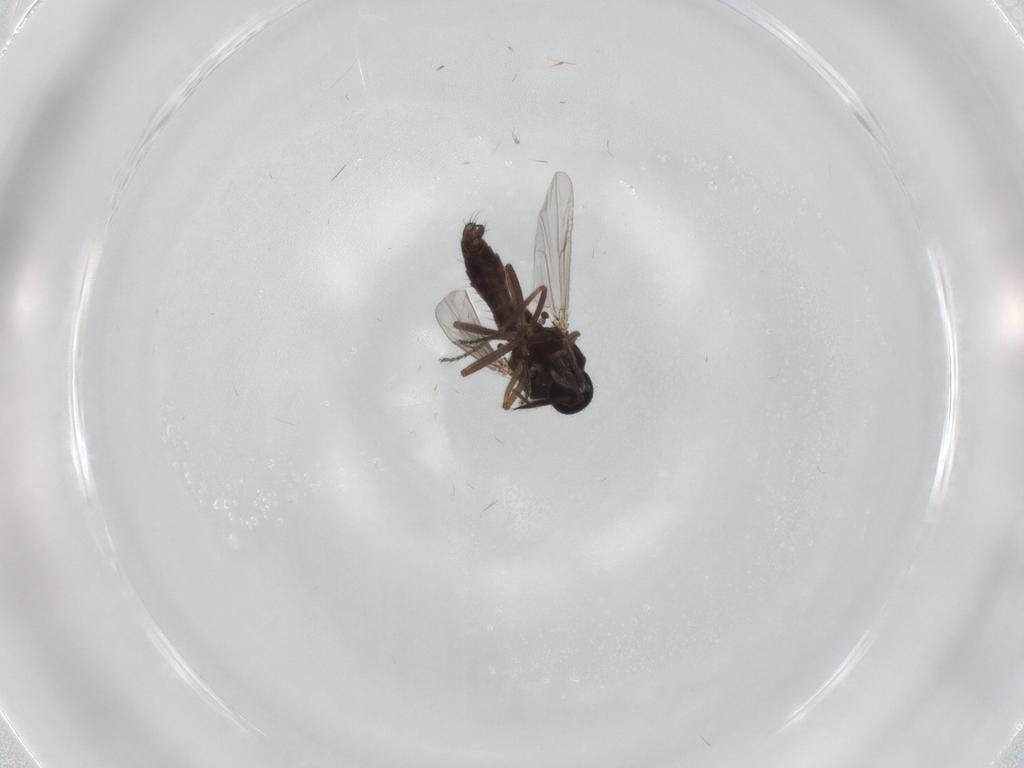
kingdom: Animalia
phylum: Arthropoda
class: Insecta
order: Diptera
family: Ceratopogonidae
